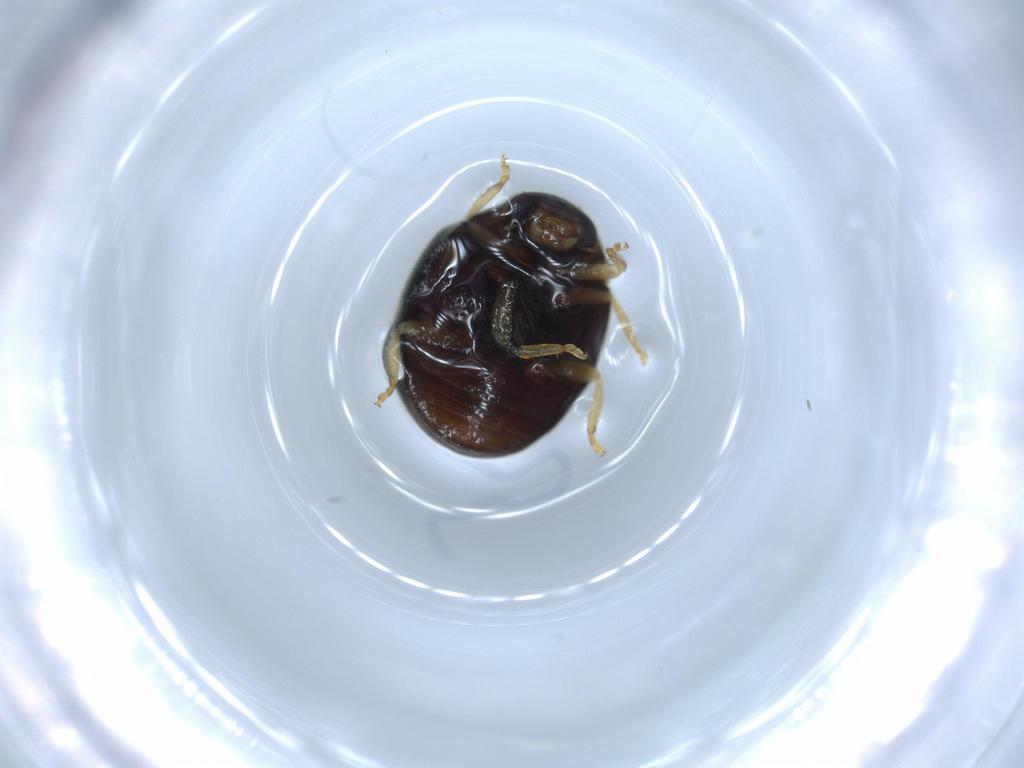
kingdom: Animalia
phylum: Arthropoda
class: Insecta
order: Coleoptera
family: Coccinellidae
